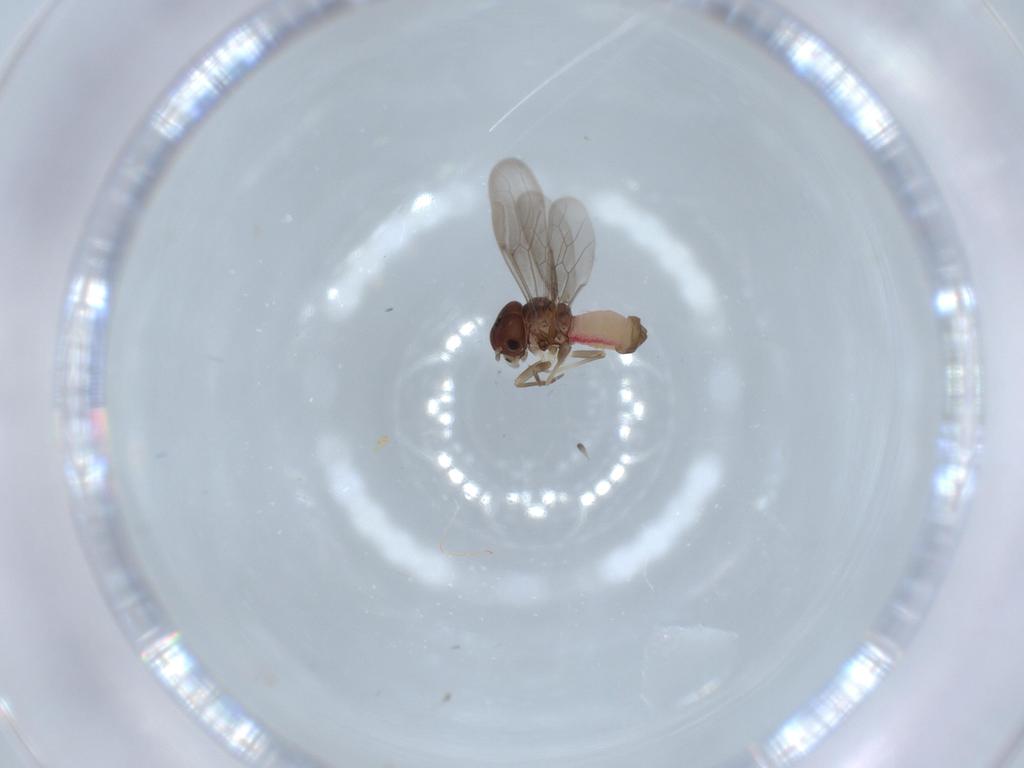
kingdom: Animalia
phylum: Arthropoda
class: Insecta
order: Psocodea
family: Asiopsocidae
